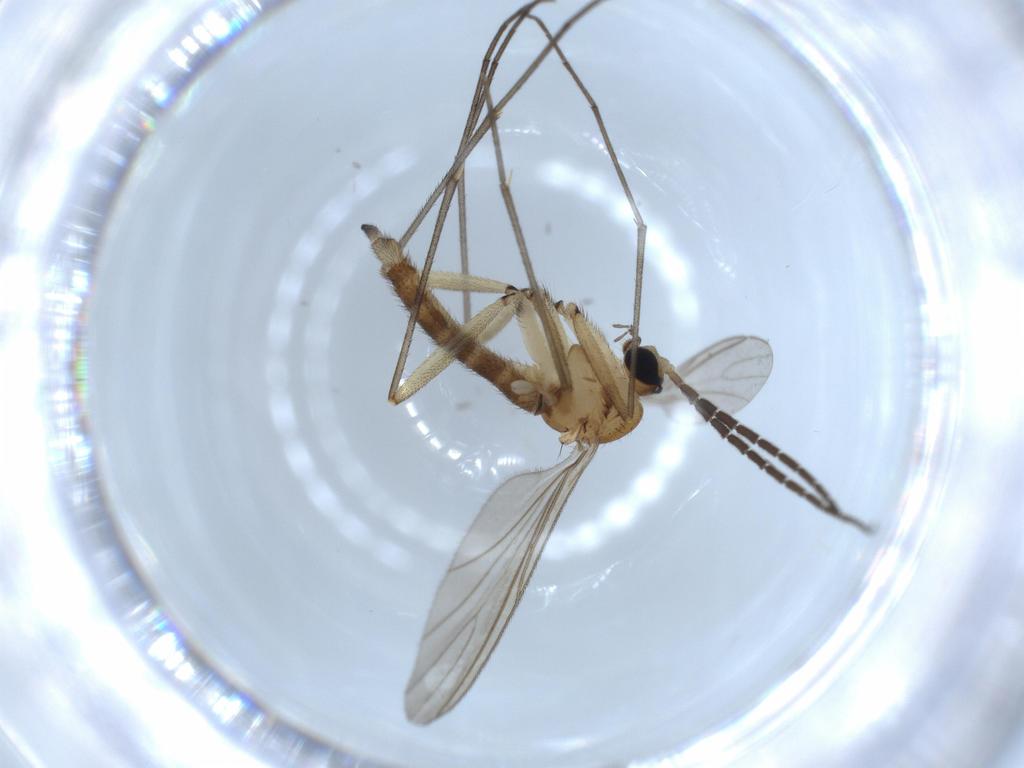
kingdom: Animalia
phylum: Arthropoda
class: Insecta
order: Diptera
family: Sciaridae
